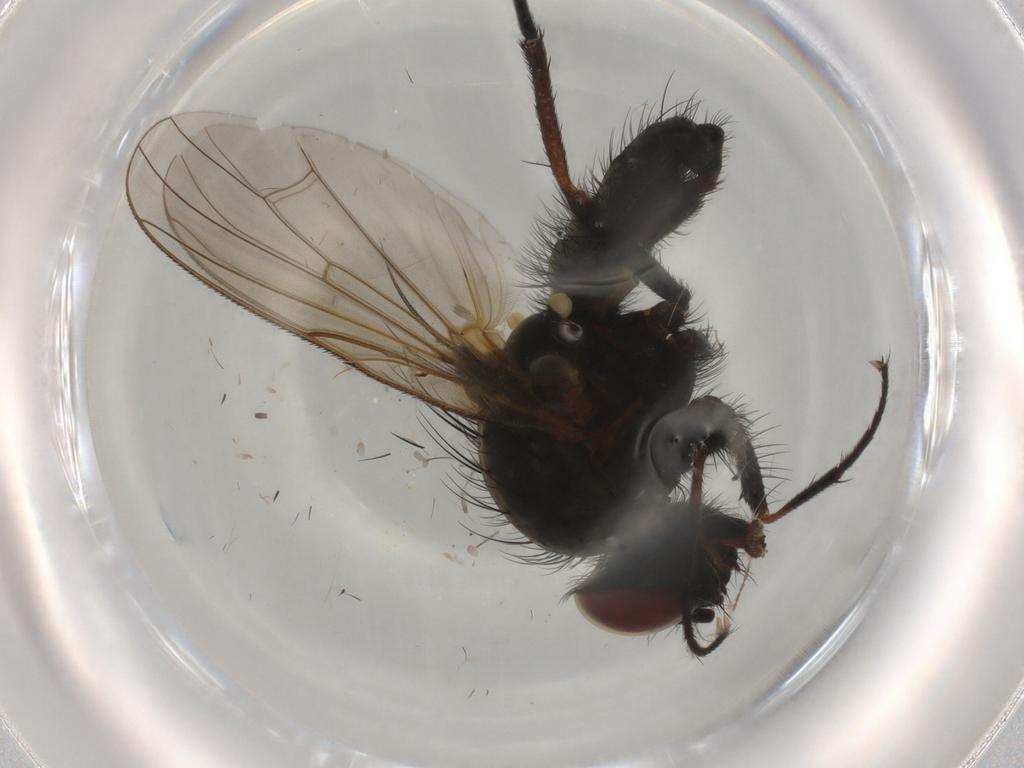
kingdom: Animalia
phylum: Arthropoda
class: Insecta
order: Diptera
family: Anthomyiidae
